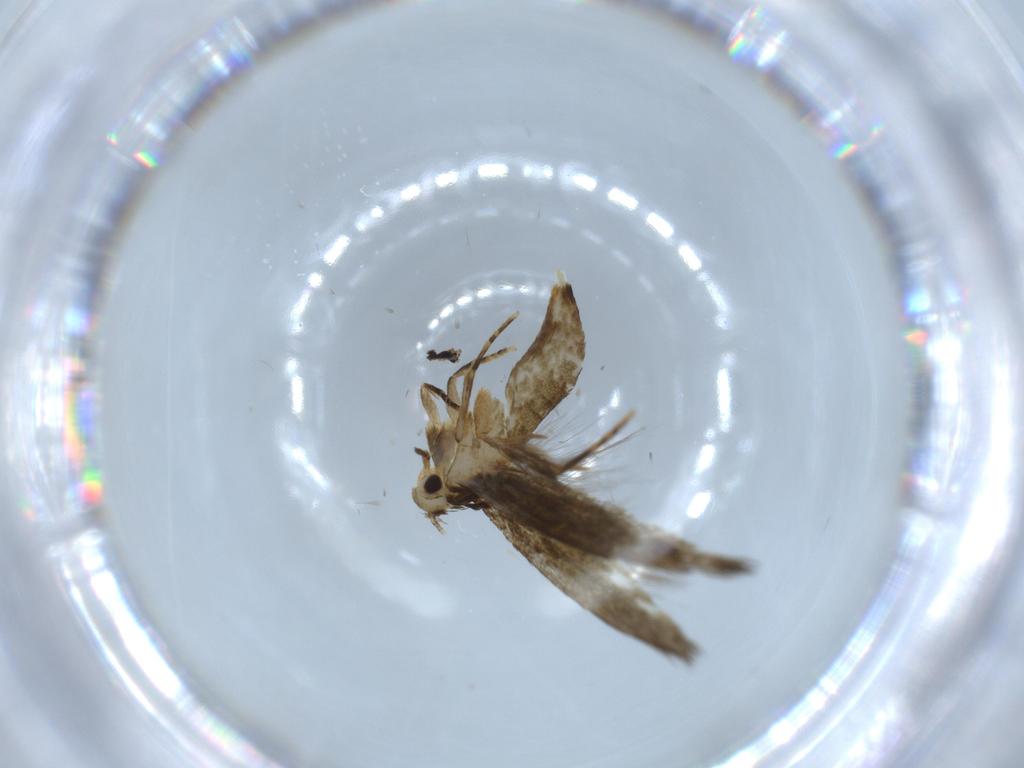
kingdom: Animalia
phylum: Arthropoda
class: Insecta
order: Lepidoptera
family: Tineidae
